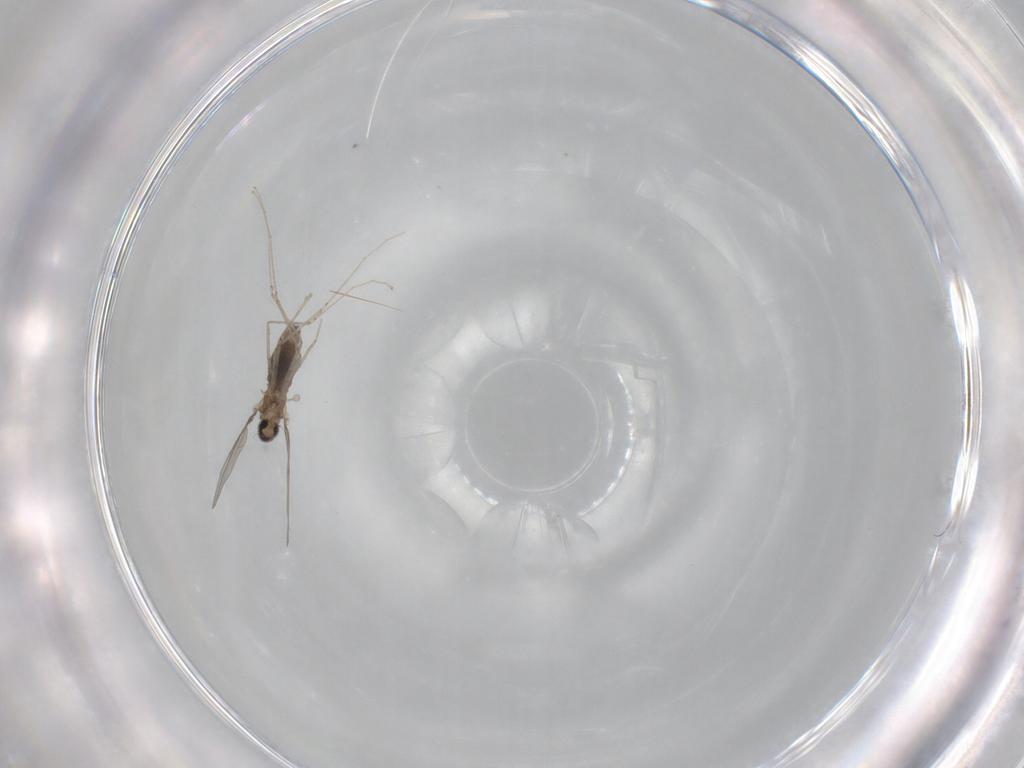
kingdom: Animalia
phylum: Arthropoda
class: Insecta
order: Diptera
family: Cecidomyiidae
